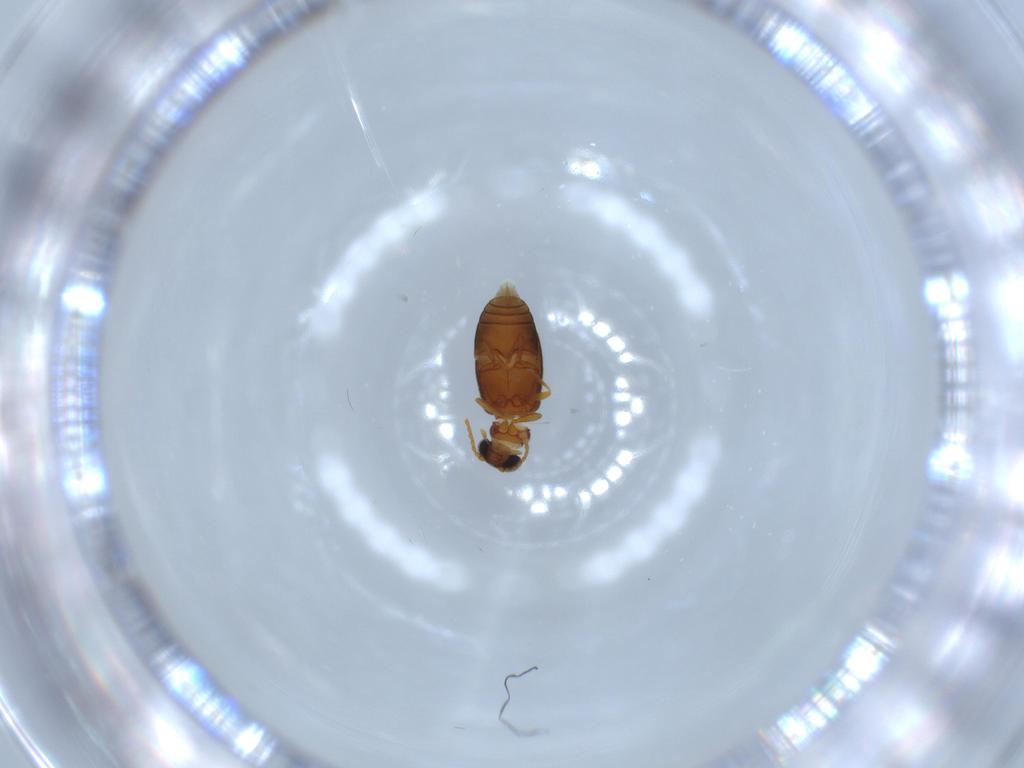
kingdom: Animalia
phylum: Arthropoda
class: Insecta
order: Coleoptera
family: Aderidae
